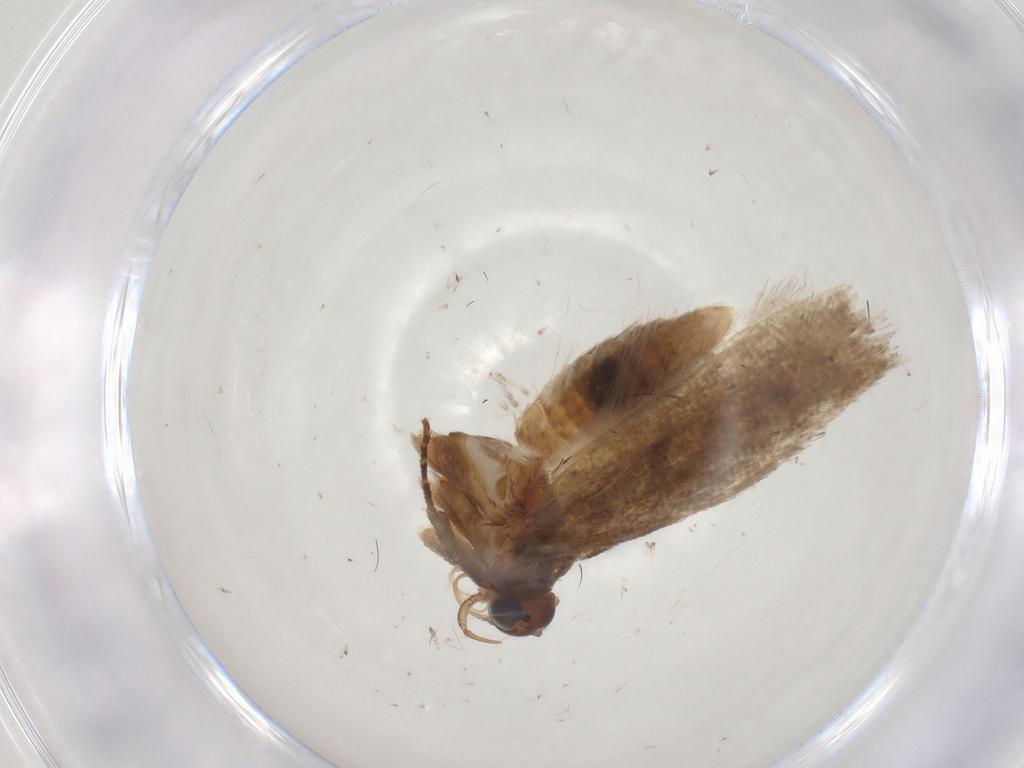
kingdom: Animalia
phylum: Arthropoda
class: Insecta
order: Lepidoptera
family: Gelechiidae
